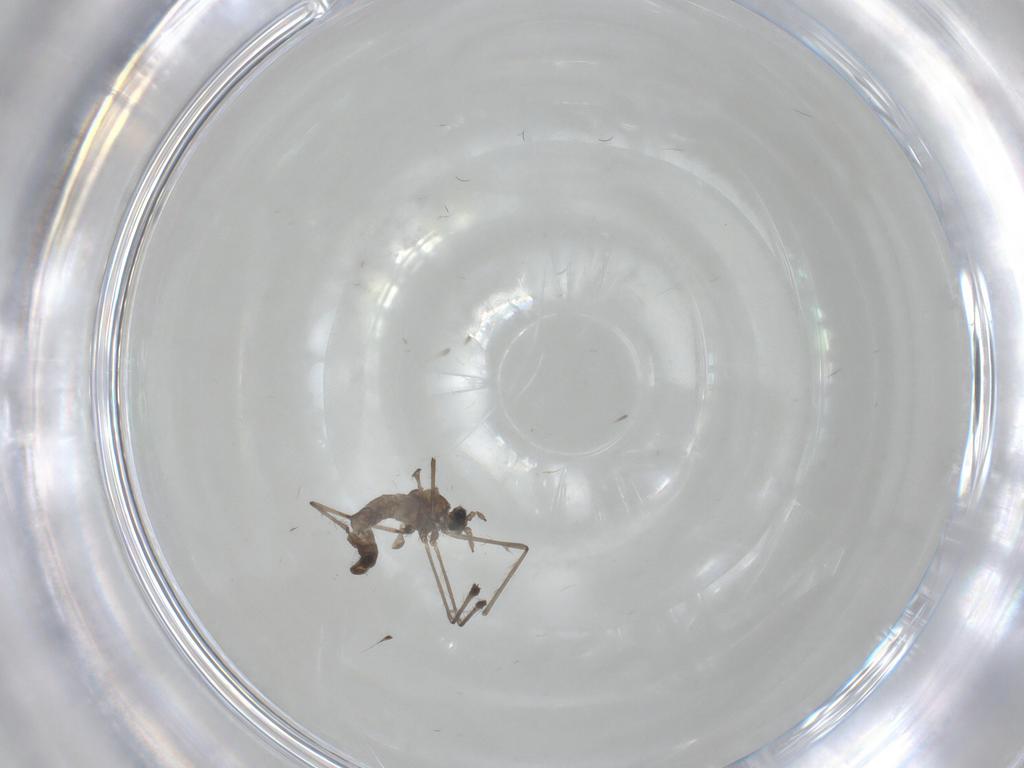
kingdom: Animalia
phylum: Arthropoda
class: Insecta
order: Diptera
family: Cecidomyiidae
